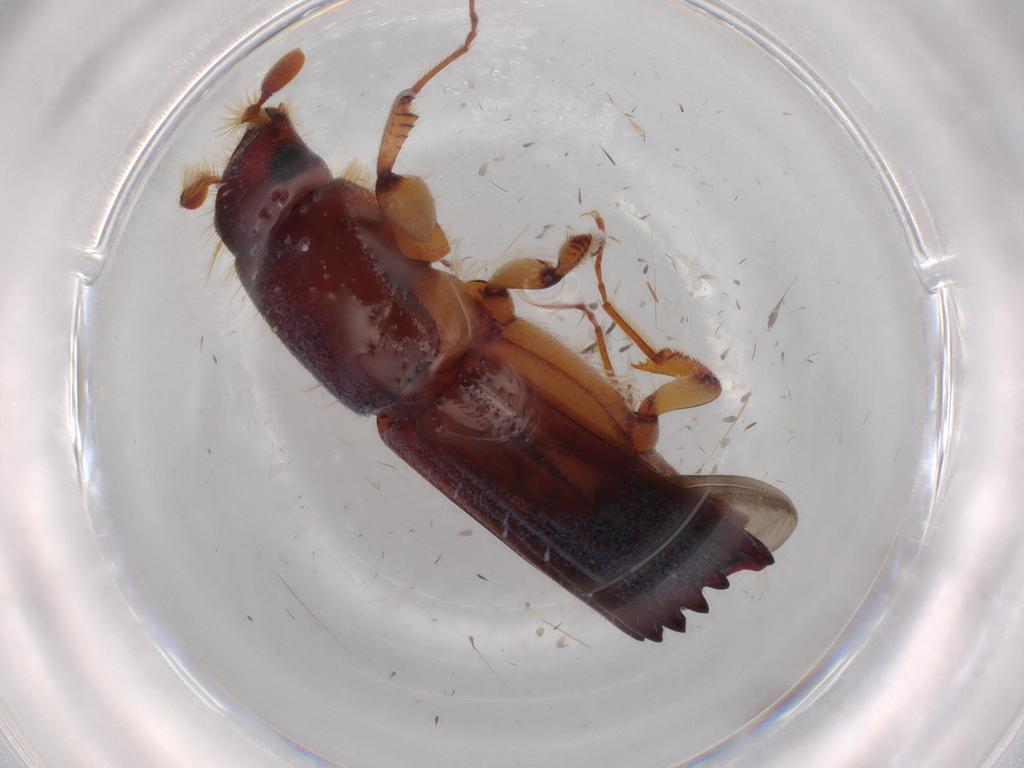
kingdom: Animalia
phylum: Arthropoda
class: Insecta
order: Coleoptera
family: Curculionidae
